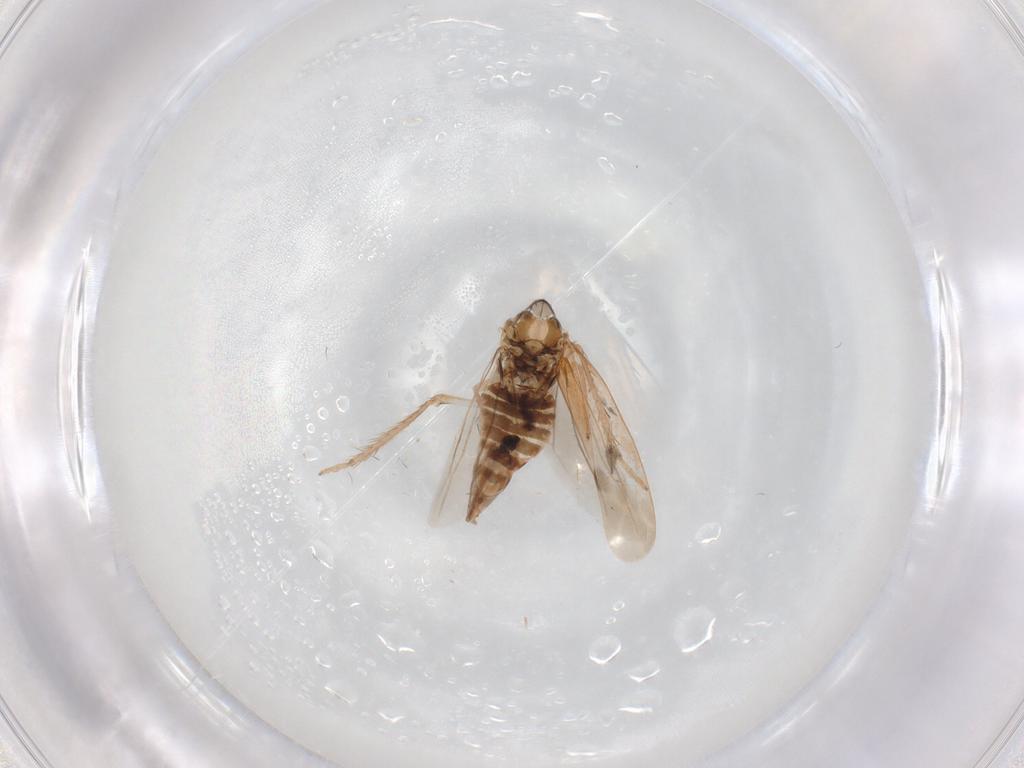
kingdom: Animalia
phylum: Arthropoda
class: Insecta
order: Hemiptera
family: Cicadellidae
